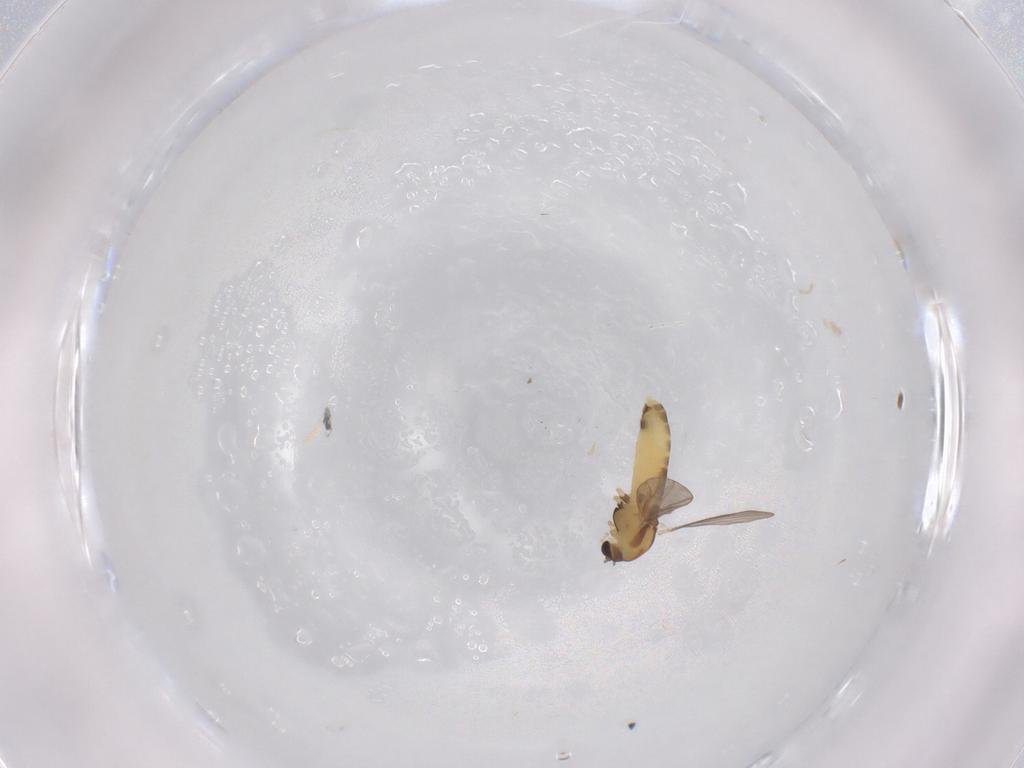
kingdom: Animalia
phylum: Arthropoda
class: Insecta
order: Diptera
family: Chironomidae
